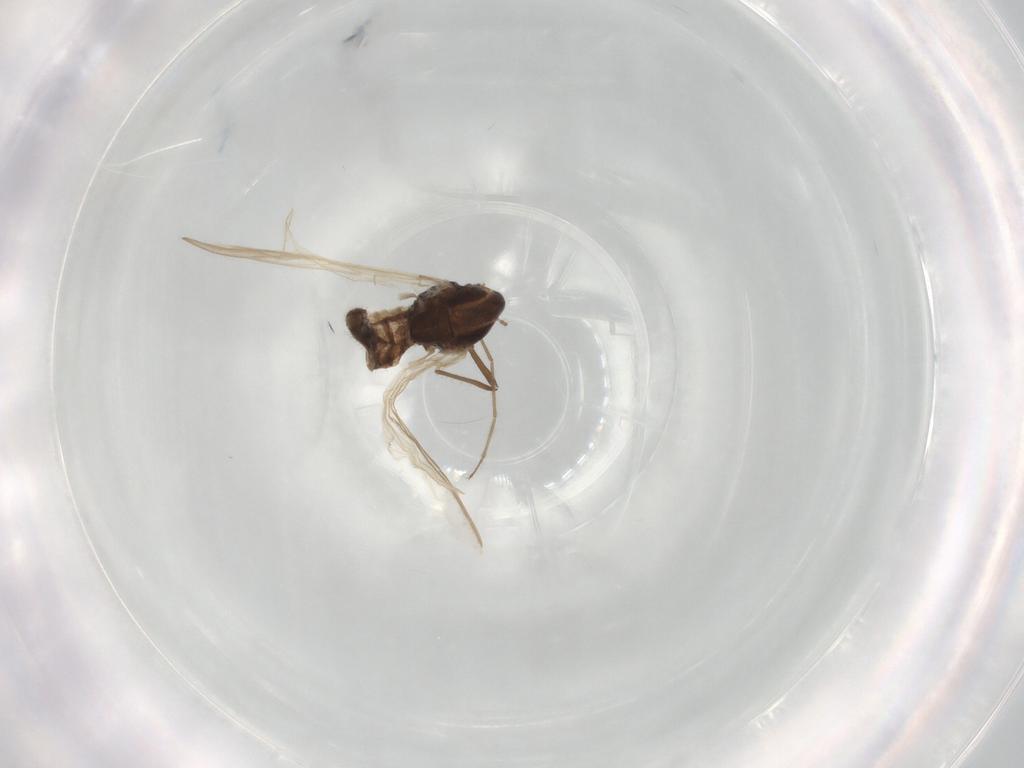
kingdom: Animalia
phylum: Arthropoda
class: Insecta
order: Diptera
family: Chironomidae
